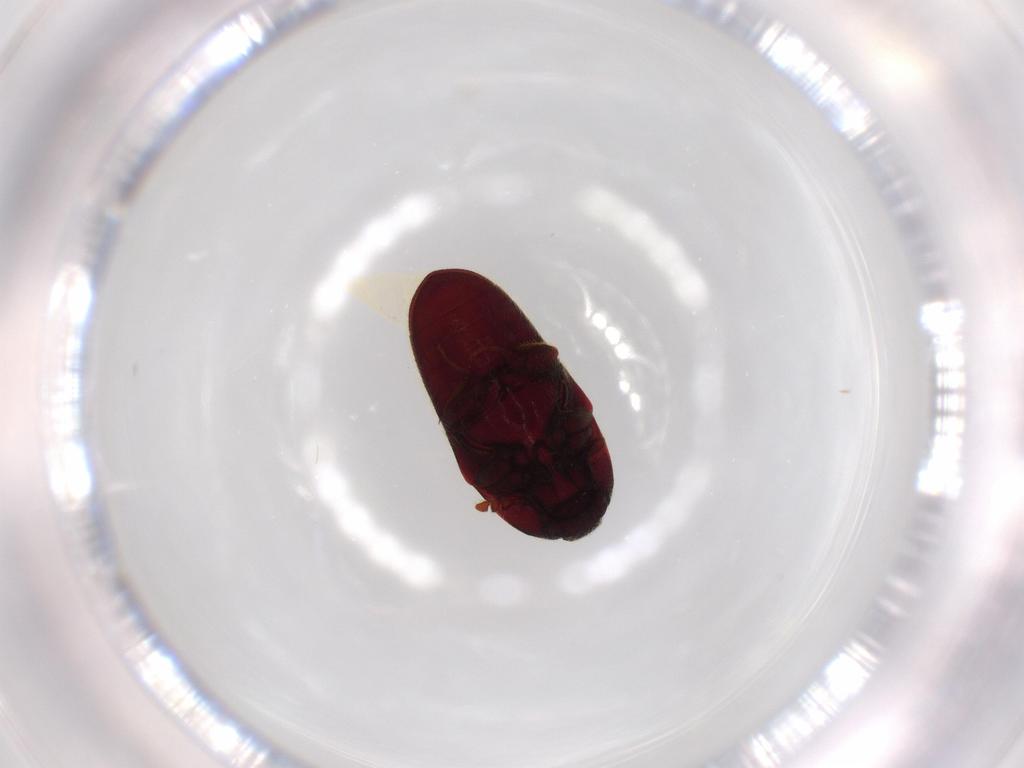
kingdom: Animalia
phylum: Arthropoda
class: Insecta
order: Coleoptera
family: Throscidae
